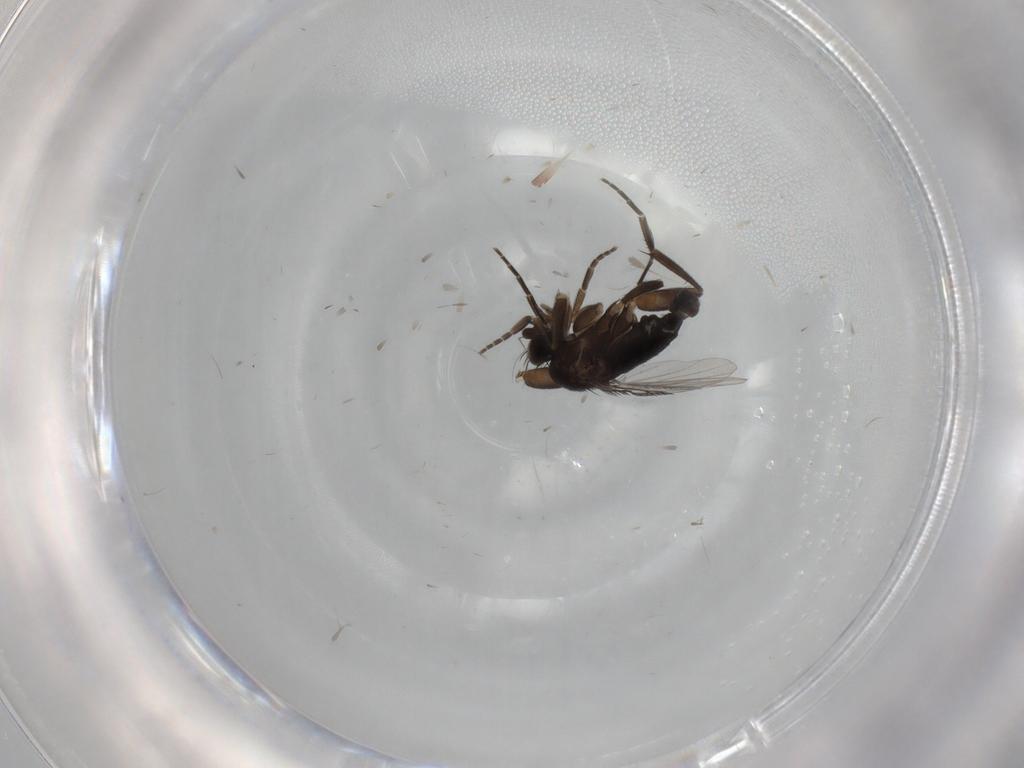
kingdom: Animalia
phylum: Arthropoda
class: Insecta
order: Diptera
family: Phoridae
